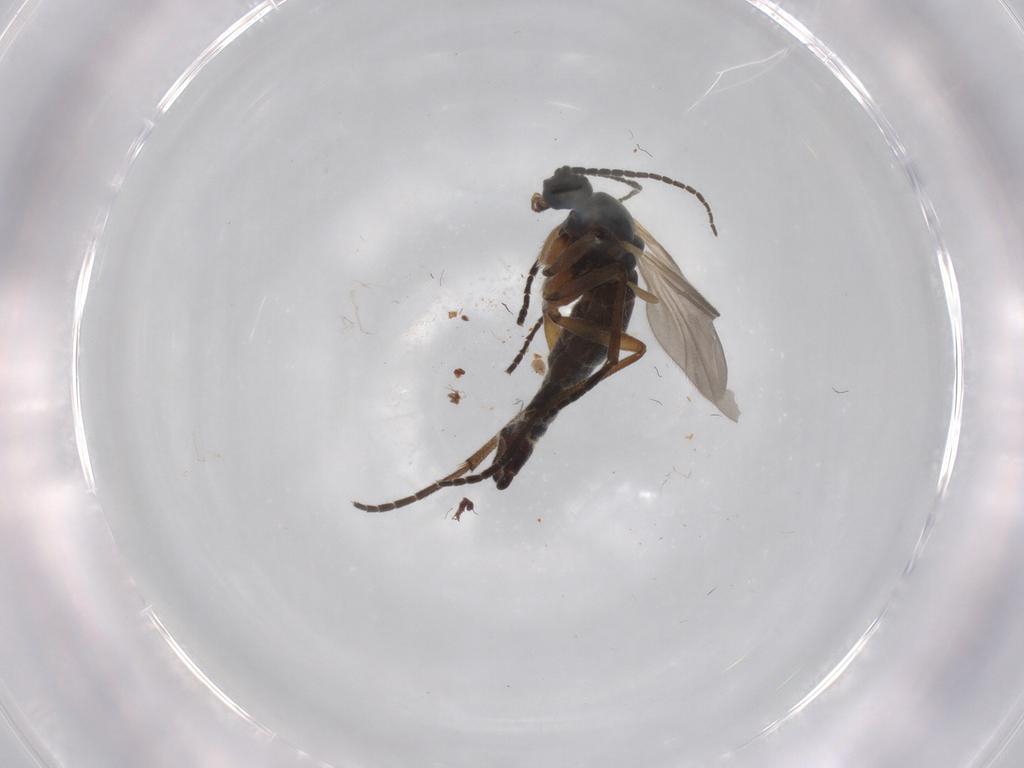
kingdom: Animalia
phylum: Arthropoda
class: Insecta
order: Diptera
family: Sciaridae
